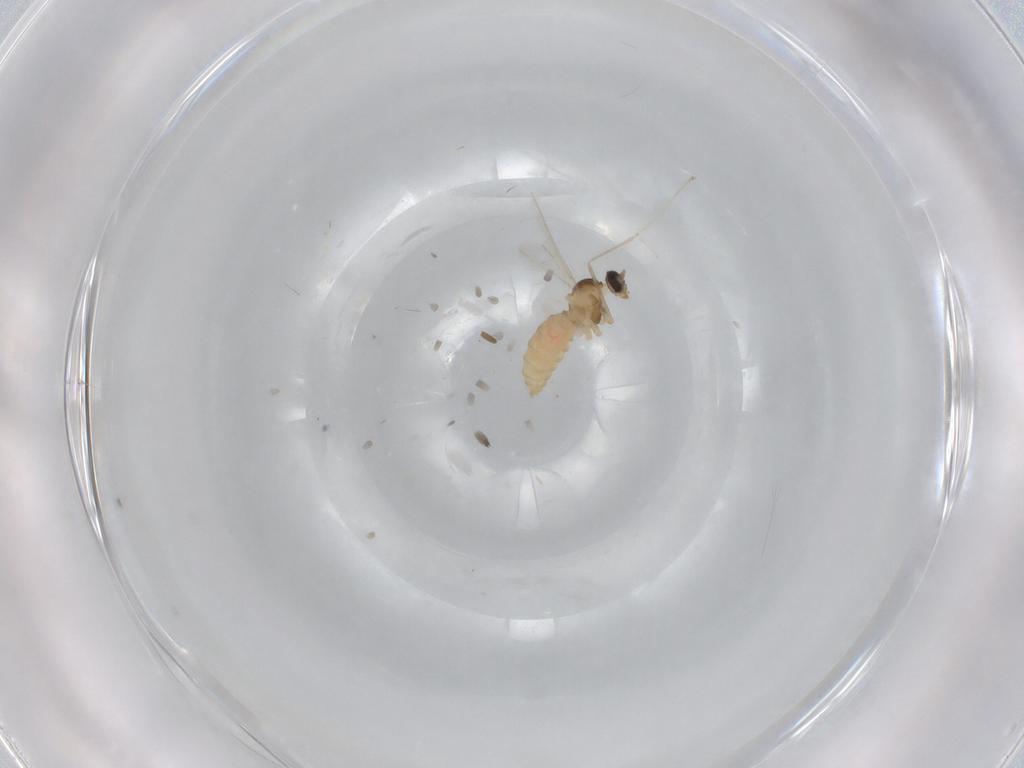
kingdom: Animalia
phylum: Arthropoda
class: Insecta
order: Diptera
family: Cecidomyiidae
